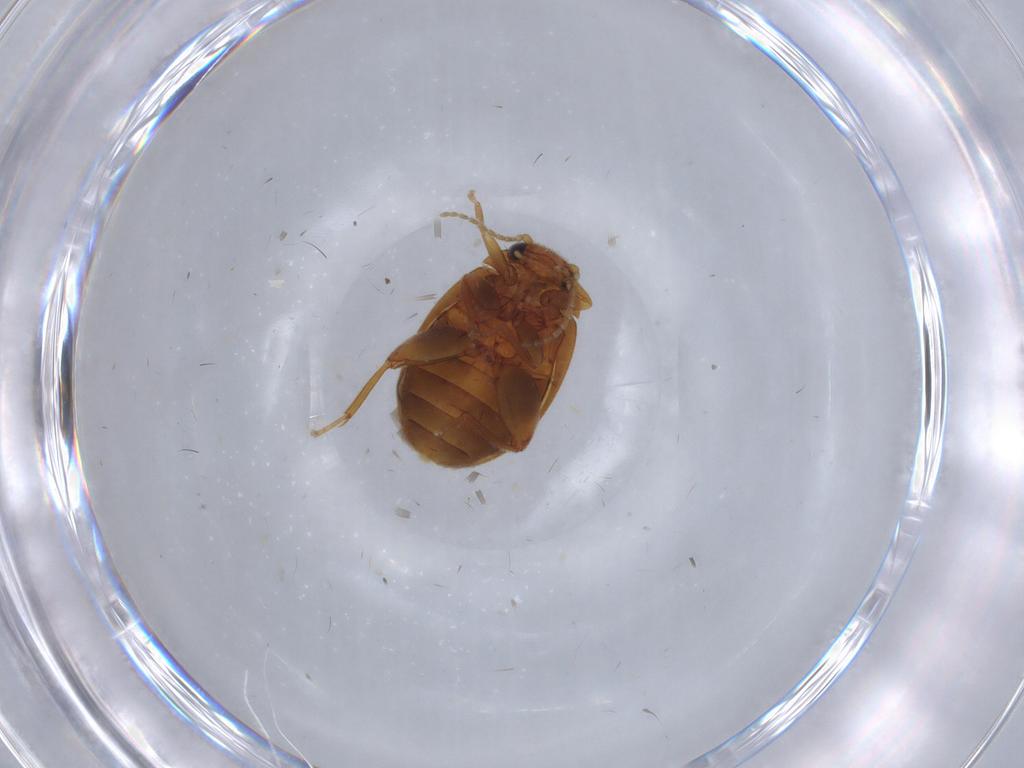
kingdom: Animalia
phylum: Arthropoda
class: Insecta
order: Coleoptera
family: Scirtidae
